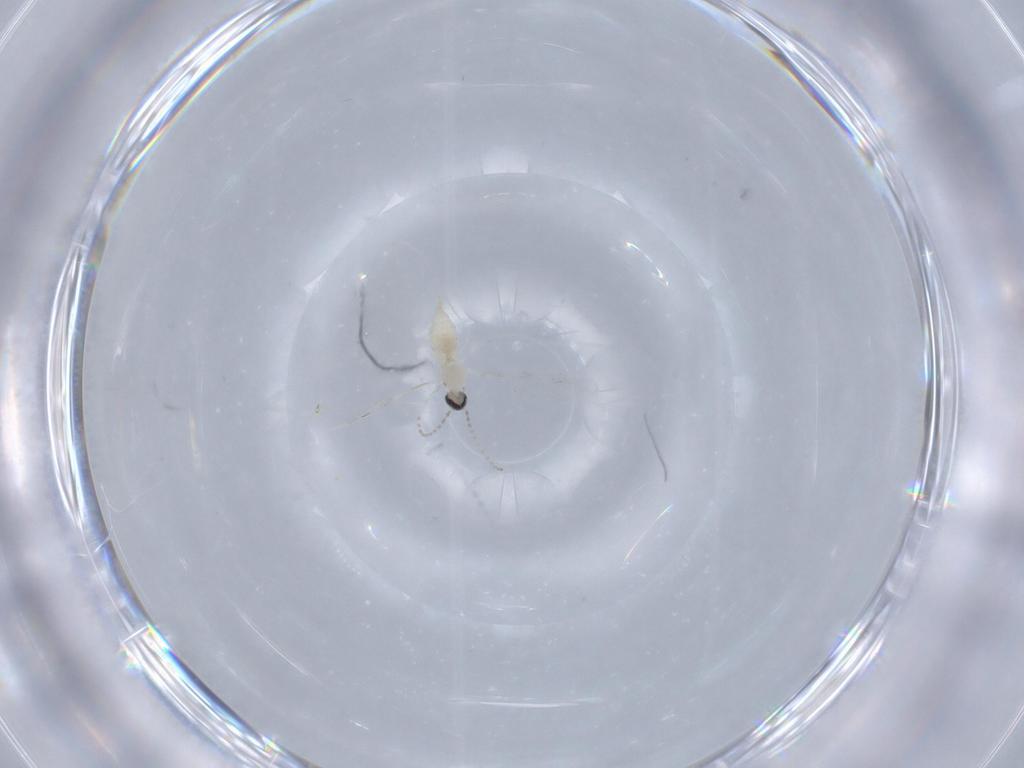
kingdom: Animalia
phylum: Arthropoda
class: Insecta
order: Diptera
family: Cecidomyiidae
